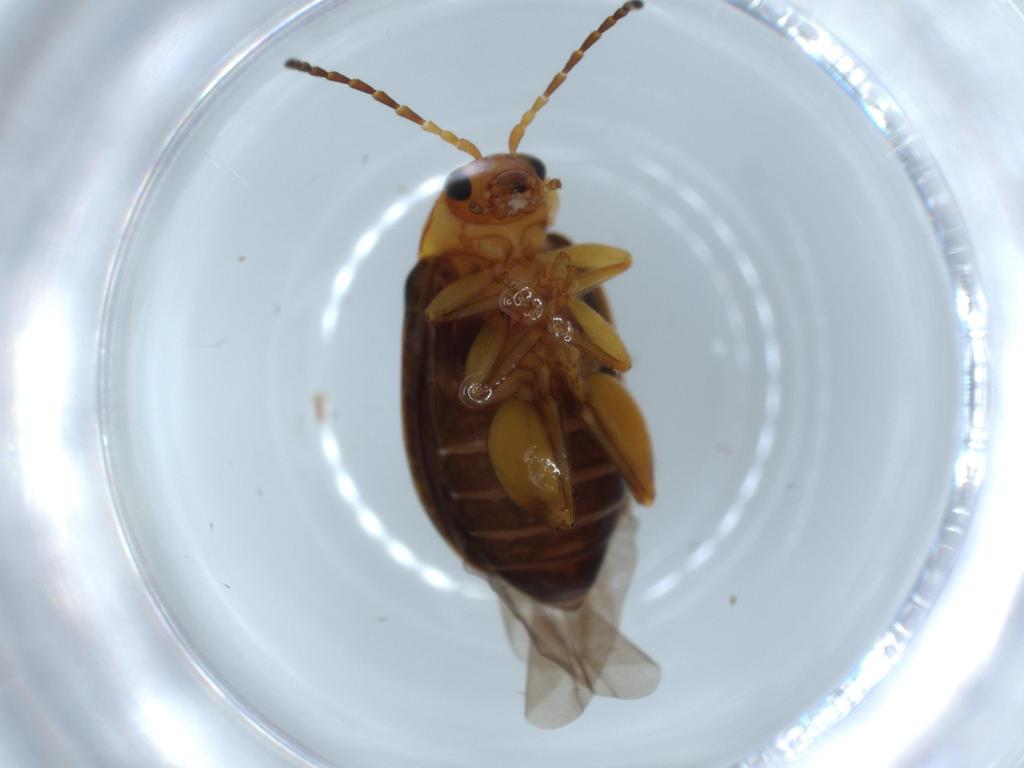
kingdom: Animalia
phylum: Arthropoda
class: Insecta
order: Coleoptera
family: Chrysomelidae
